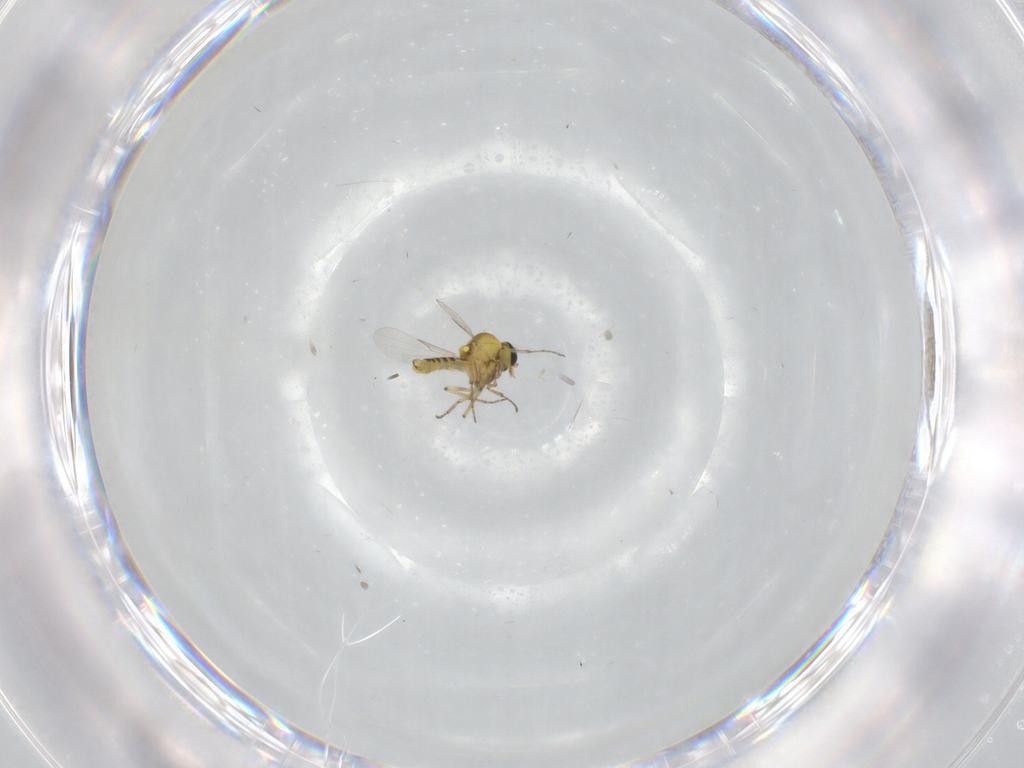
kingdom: Animalia
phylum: Arthropoda
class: Insecta
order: Diptera
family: Ceratopogonidae
